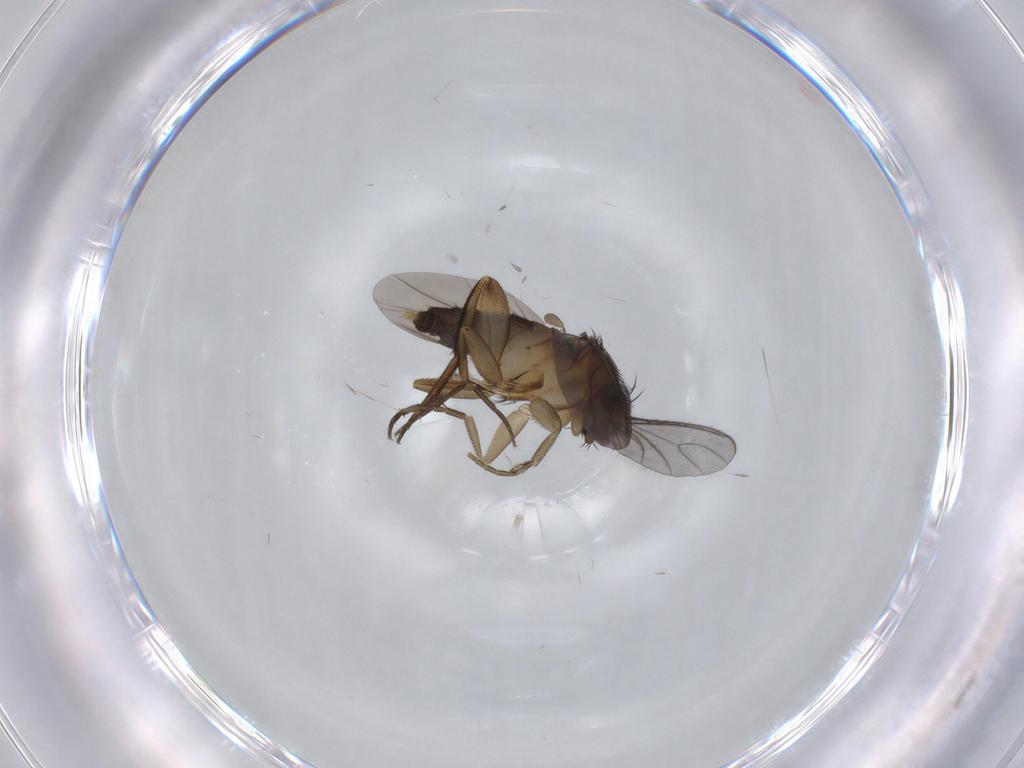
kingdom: Animalia
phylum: Arthropoda
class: Insecta
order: Diptera
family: Phoridae
